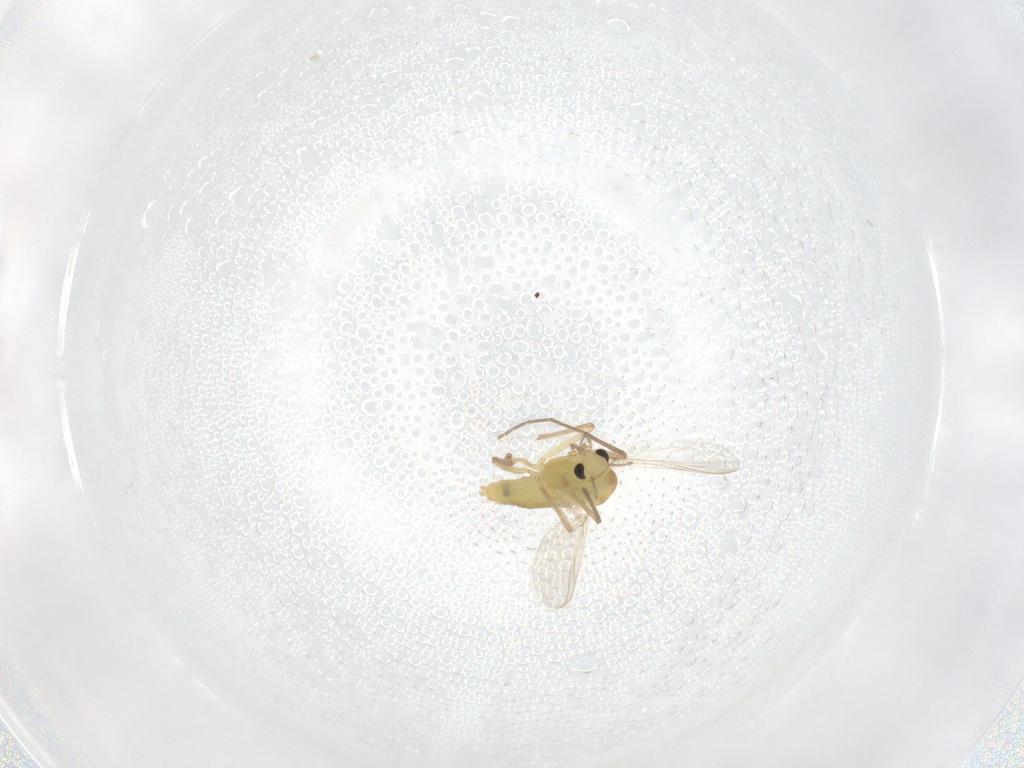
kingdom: Animalia
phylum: Arthropoda
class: Insecta
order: Diptera
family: Chironomidae
